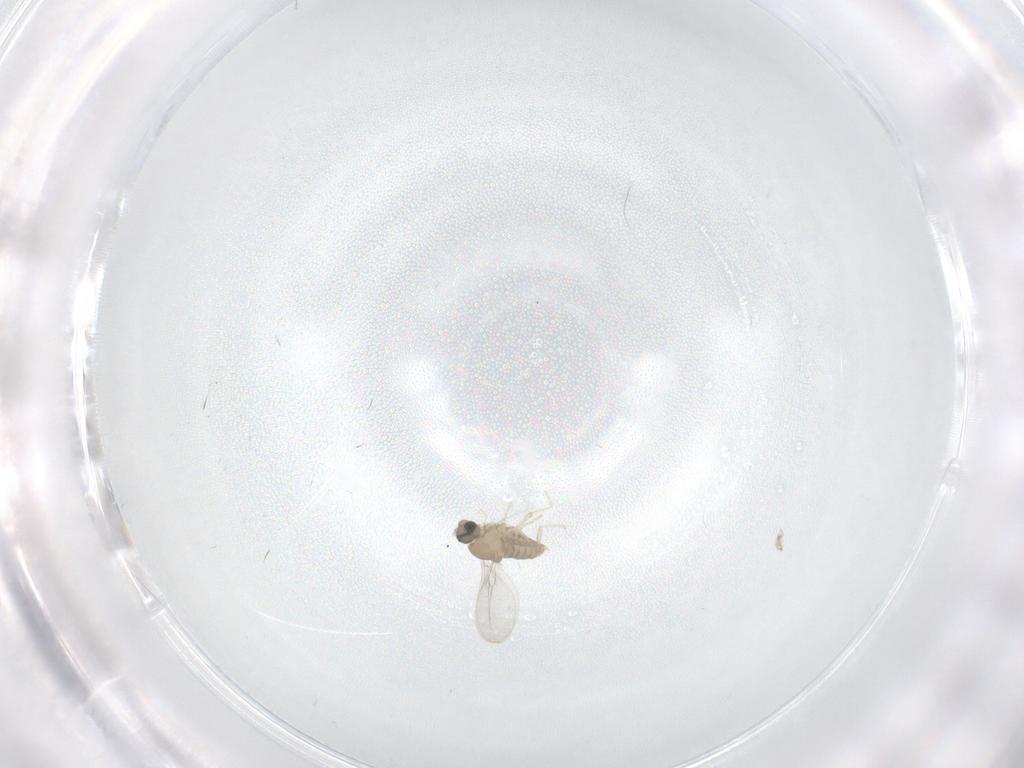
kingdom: Animalia
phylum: Arthropoda
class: Insecta
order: Diptera
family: Cecidomyiidae
